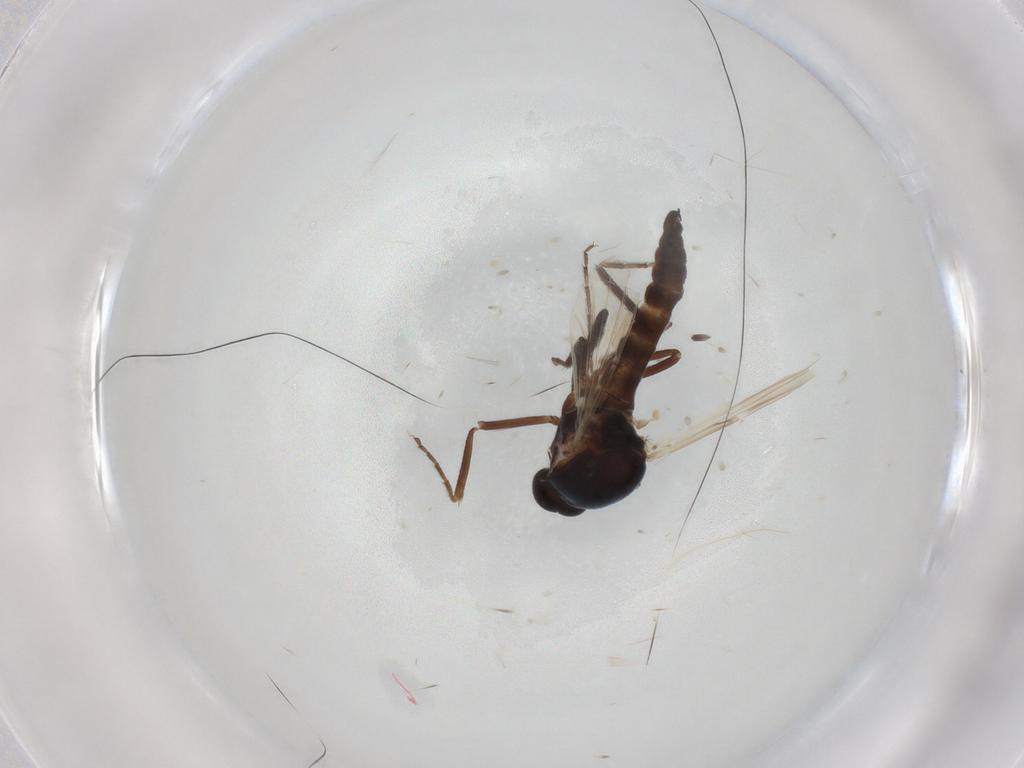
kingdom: Animalia
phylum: Arthropoda
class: Insecta
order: Diptera
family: Ceratopogonidae
